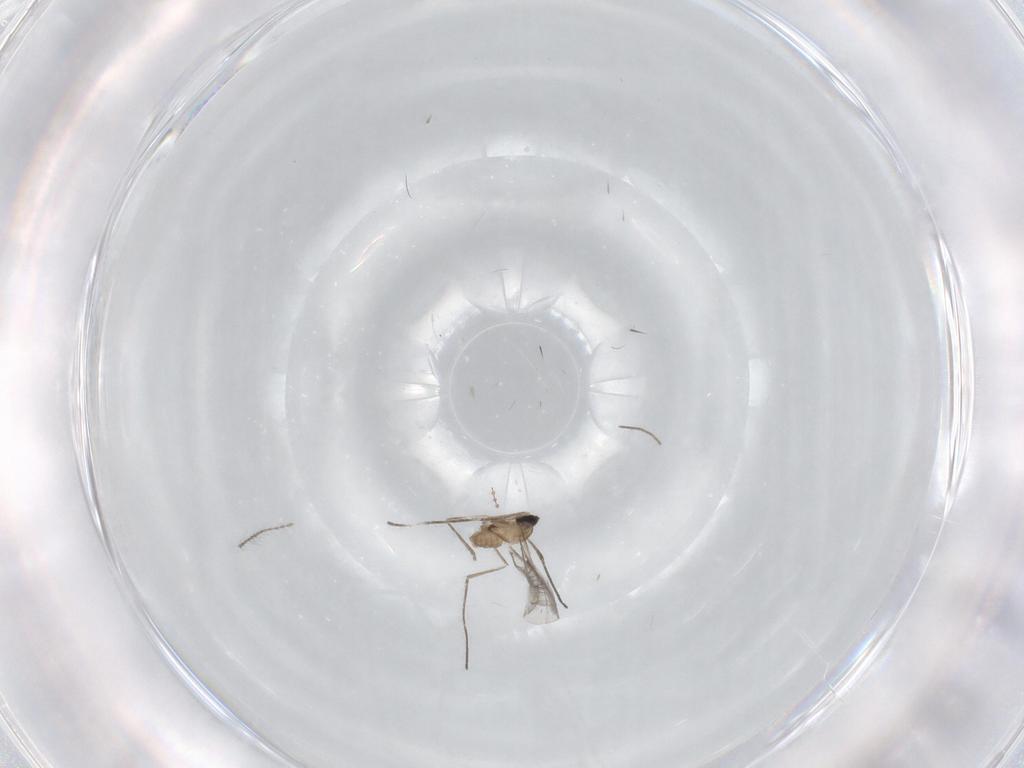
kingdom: Animalia
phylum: Arthropoda
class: Insecta
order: Diptera
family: Cecidomyiidae
